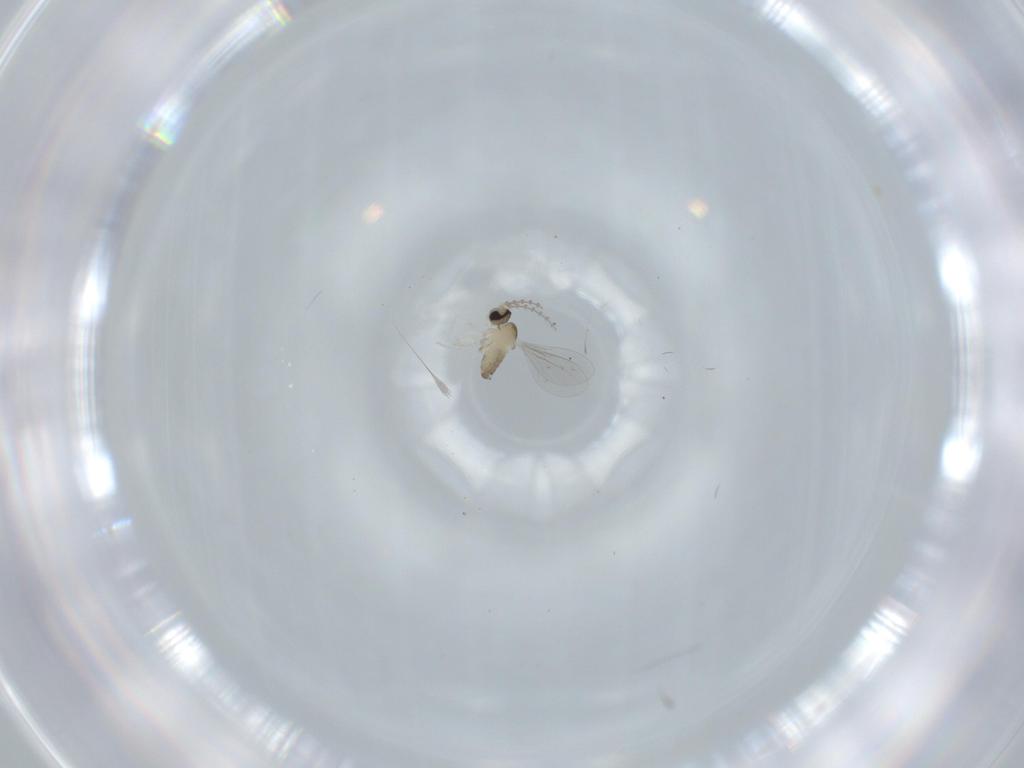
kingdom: Animalia
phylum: Arthropoda
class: Insecta
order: Diptera
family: Cecidomyiidae
